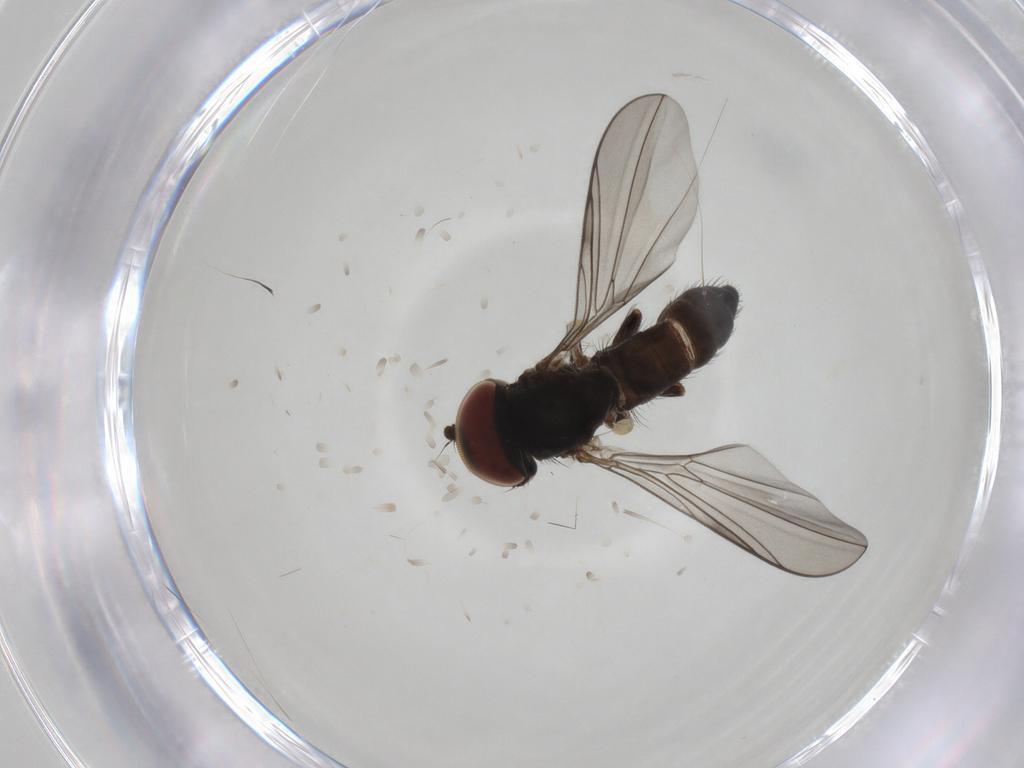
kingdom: Animalia
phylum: Arthropoda
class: Insecta
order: Diptera
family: Pipunculidae
